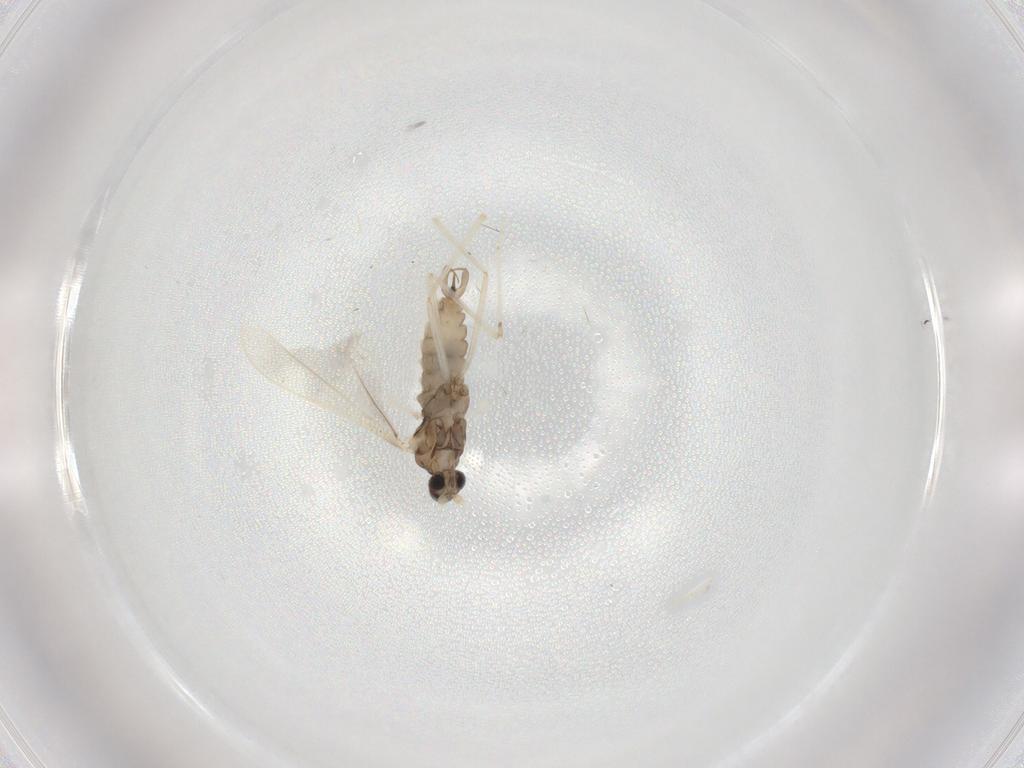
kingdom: Animalia
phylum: Arthropoda
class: Insecta
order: Diptera
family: Cecidomyiidae
